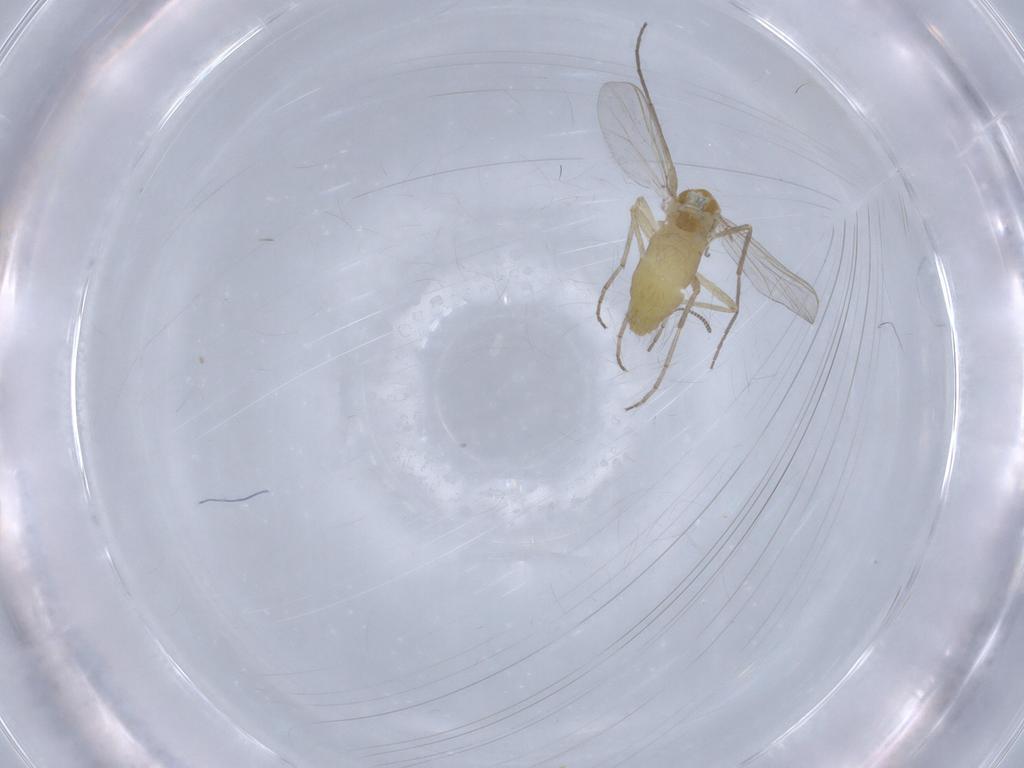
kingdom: Animalia
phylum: Arthropoda
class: Insecta
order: Diptera
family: Chironomidae
